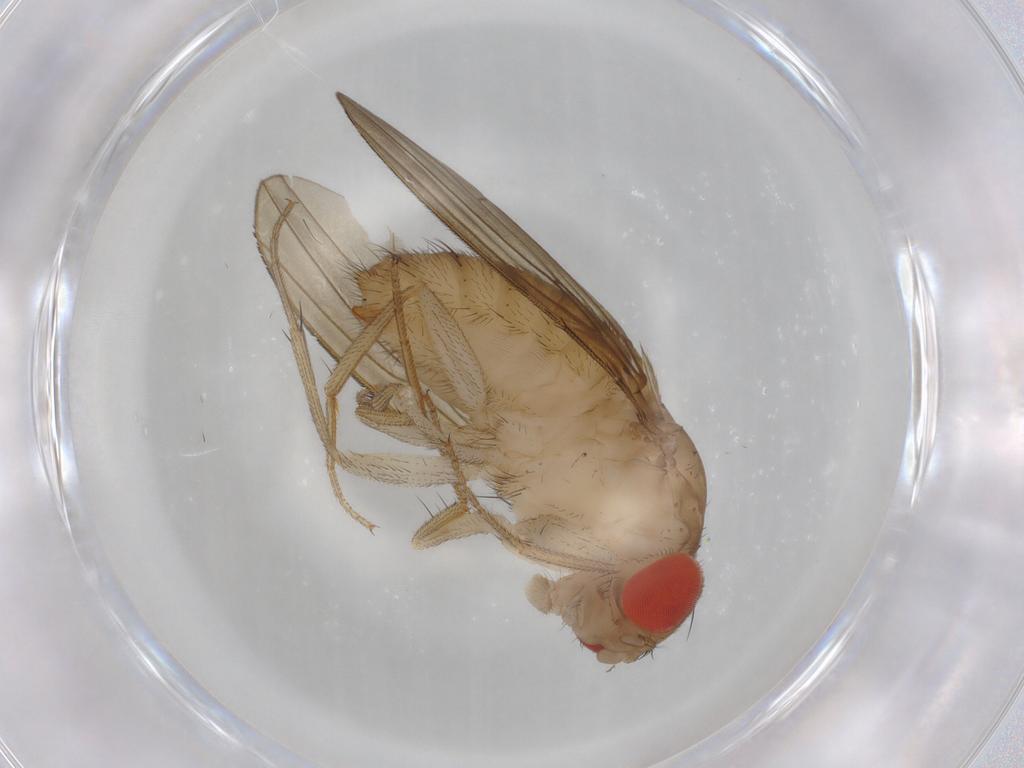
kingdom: Animalia
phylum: Arthropoda
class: Insecta
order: Diptera
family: Drosophilidae
